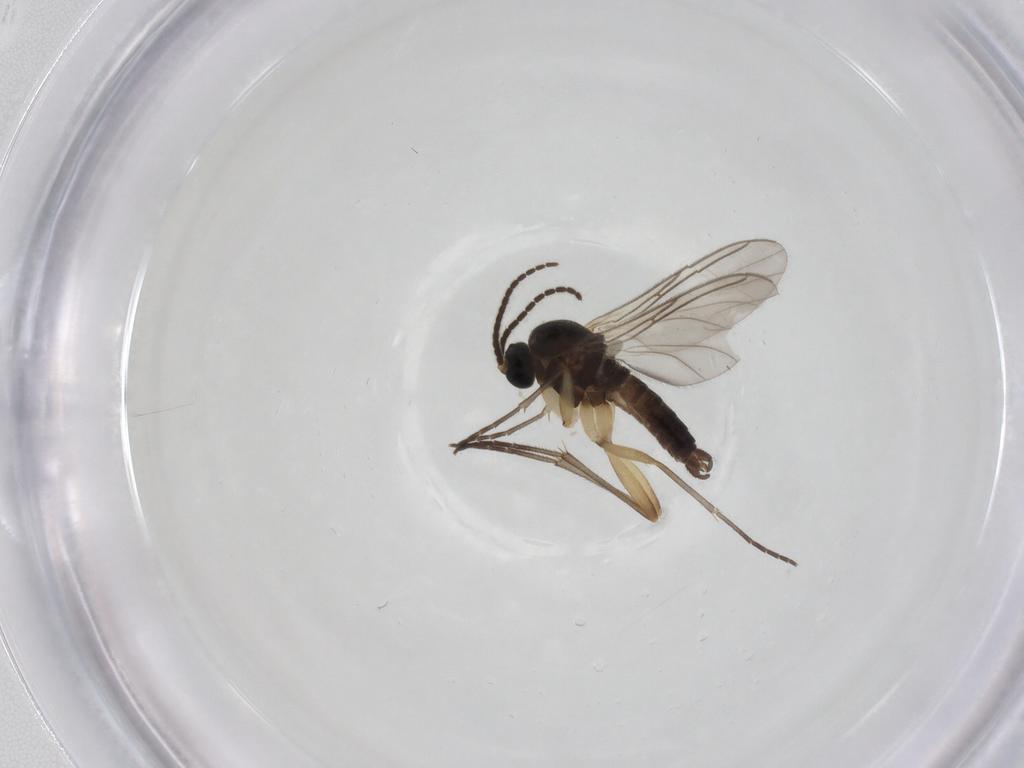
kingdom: Animalia
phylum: Arthropoda
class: Insecta
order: Diptera
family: Sciaridae
